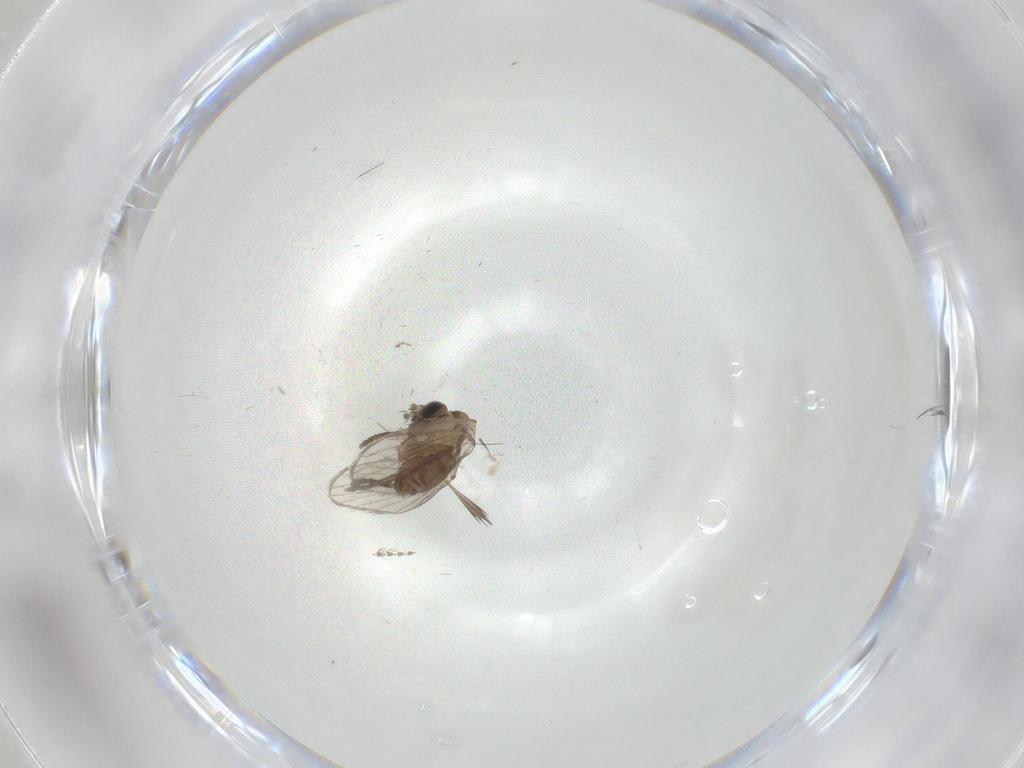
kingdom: Animalia
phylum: Arthropoda
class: Insecta
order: Diptera
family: Psychodidae
